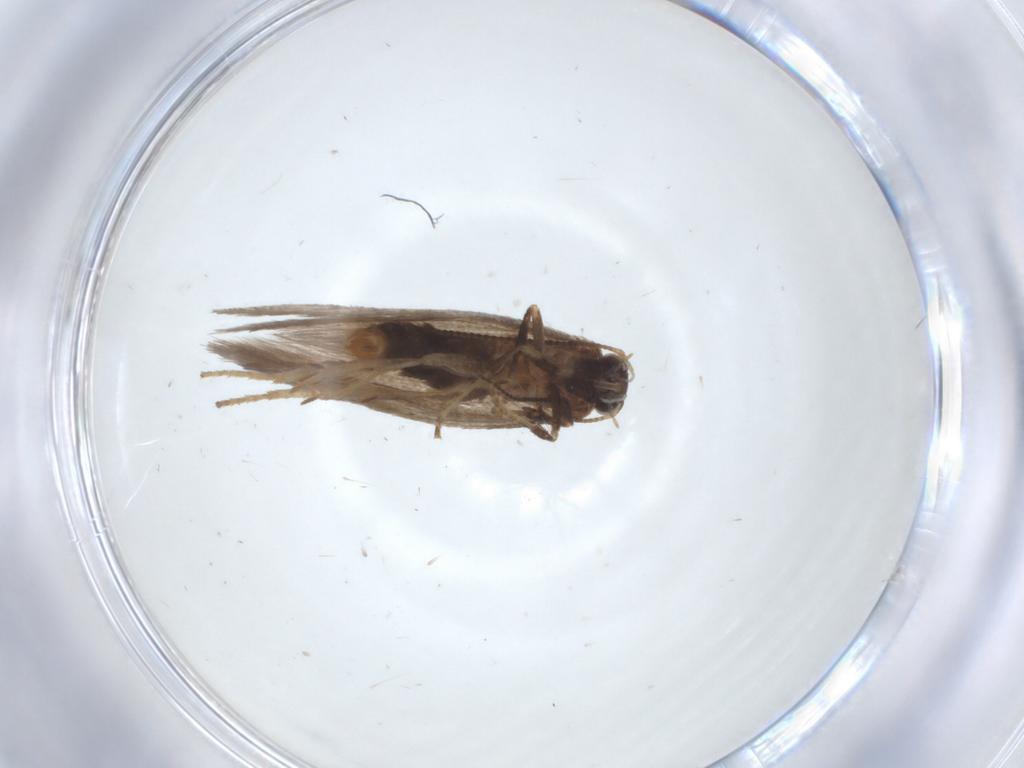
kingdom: Animalia
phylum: Arthropoda
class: Insecta
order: Lepidoptera
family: Nepticulidae
